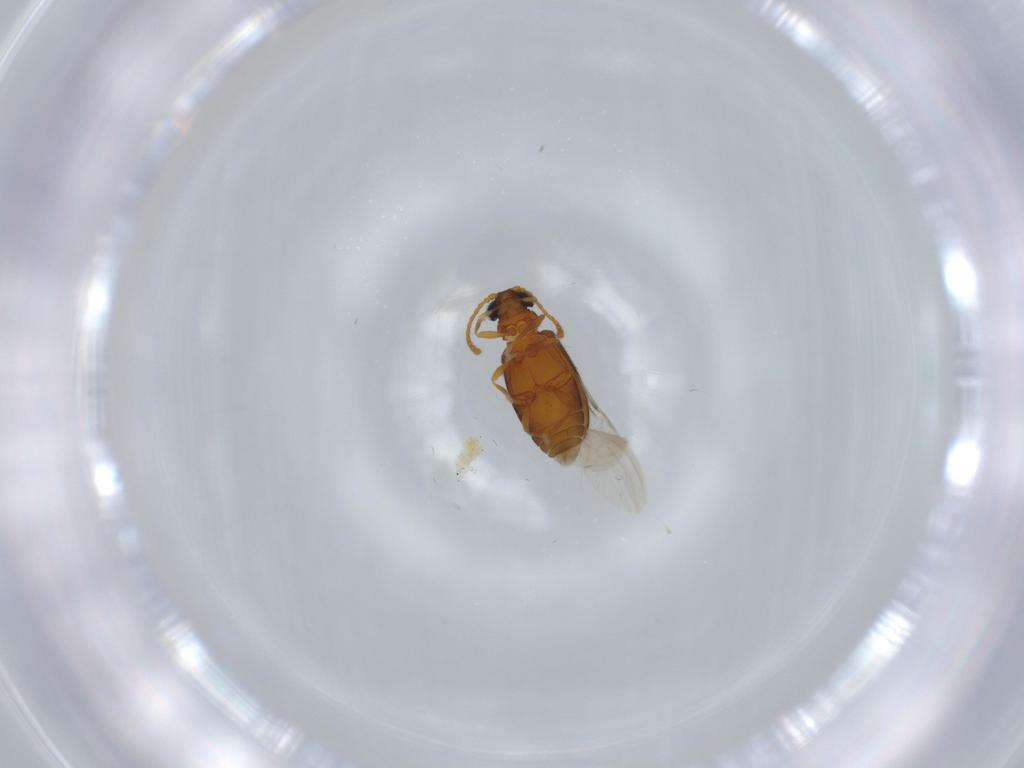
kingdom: Animalia
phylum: Arthropoda
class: Insecta
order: Coleoptera
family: Aderidae
